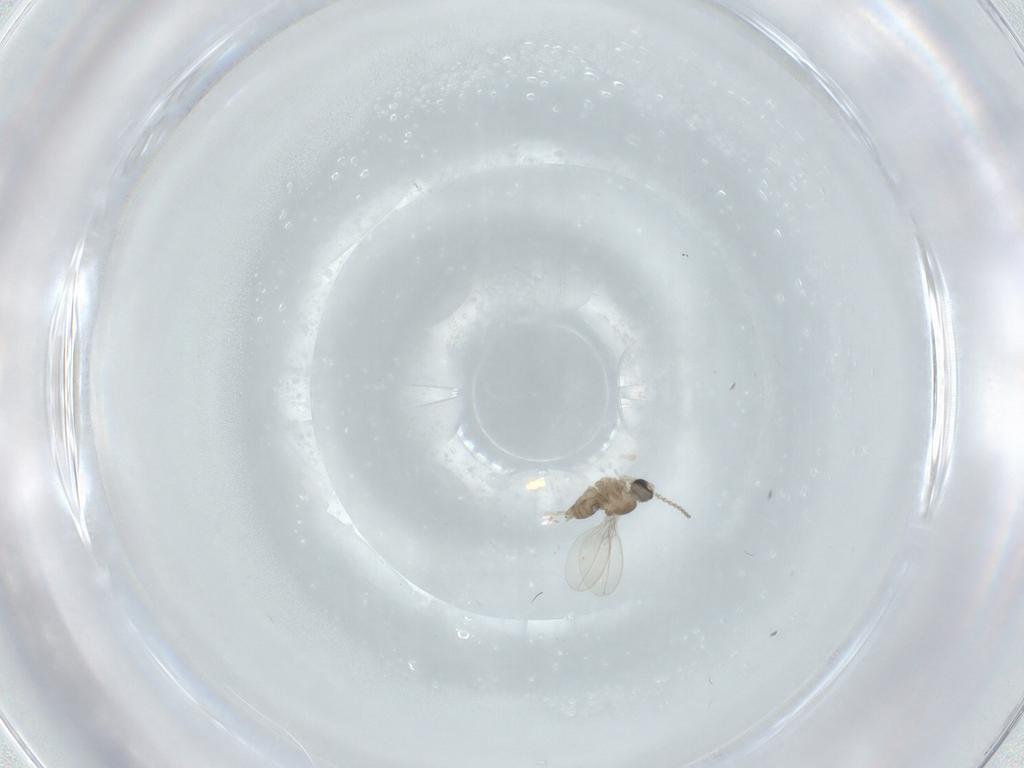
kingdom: Animalia
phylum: Arthropoda
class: Insecta
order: Diptera
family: Cecidomyiidae
